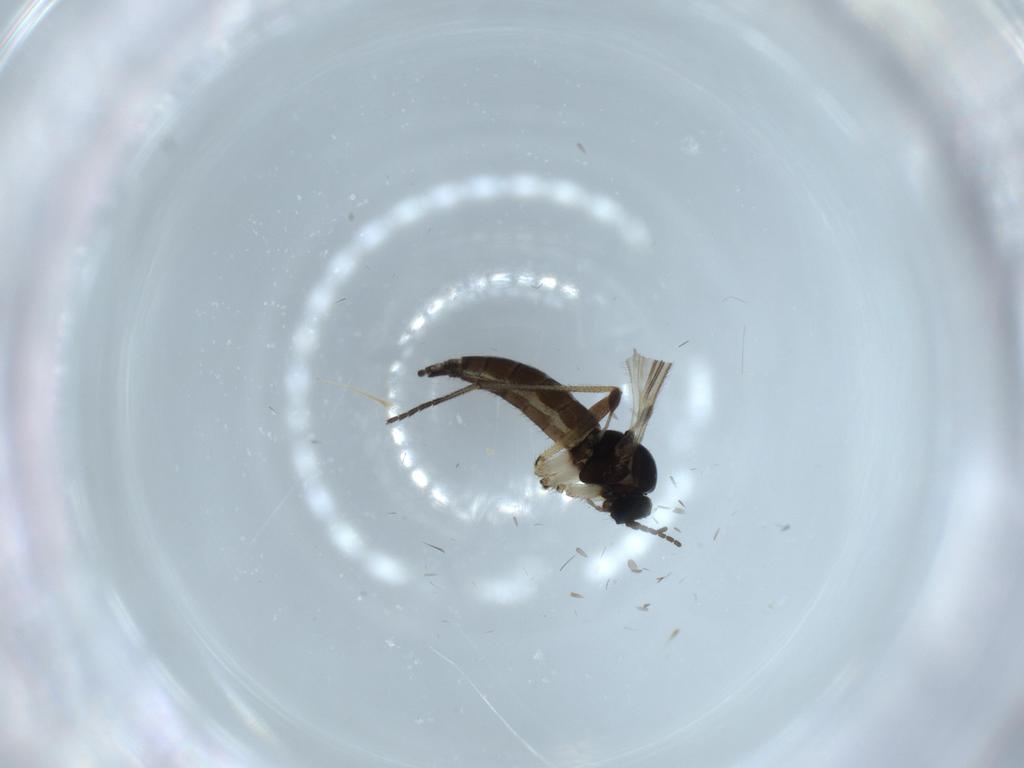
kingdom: Animalia
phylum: Arthropoda
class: Insecta
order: Diptera
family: Sciaridae
